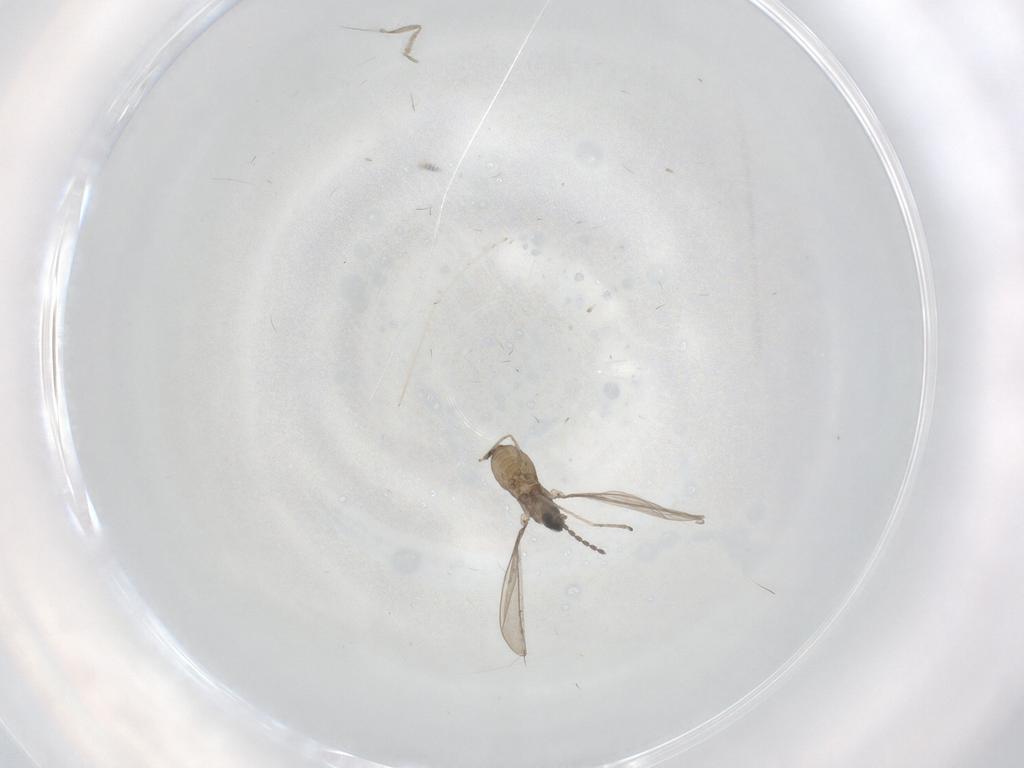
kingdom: Animalia
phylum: Arthropoda
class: Insecta
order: Diptera
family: Cecidomyiidae
